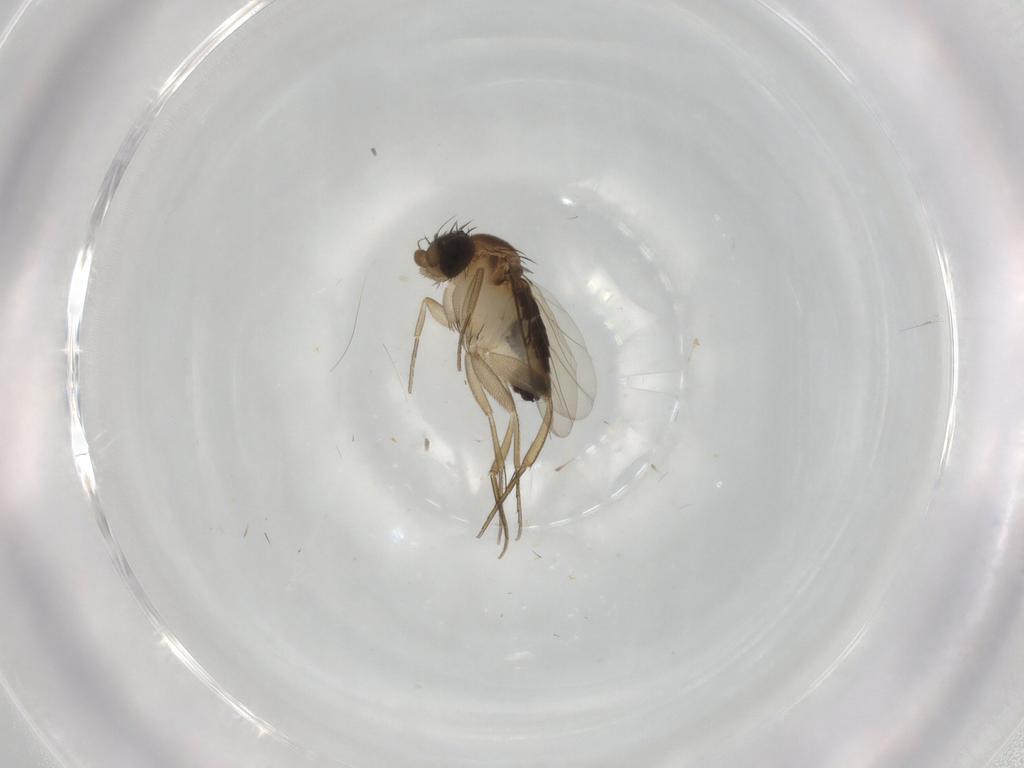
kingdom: Animalia
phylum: Arthropoda
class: Insecta
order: Diptera
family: Phoridae
